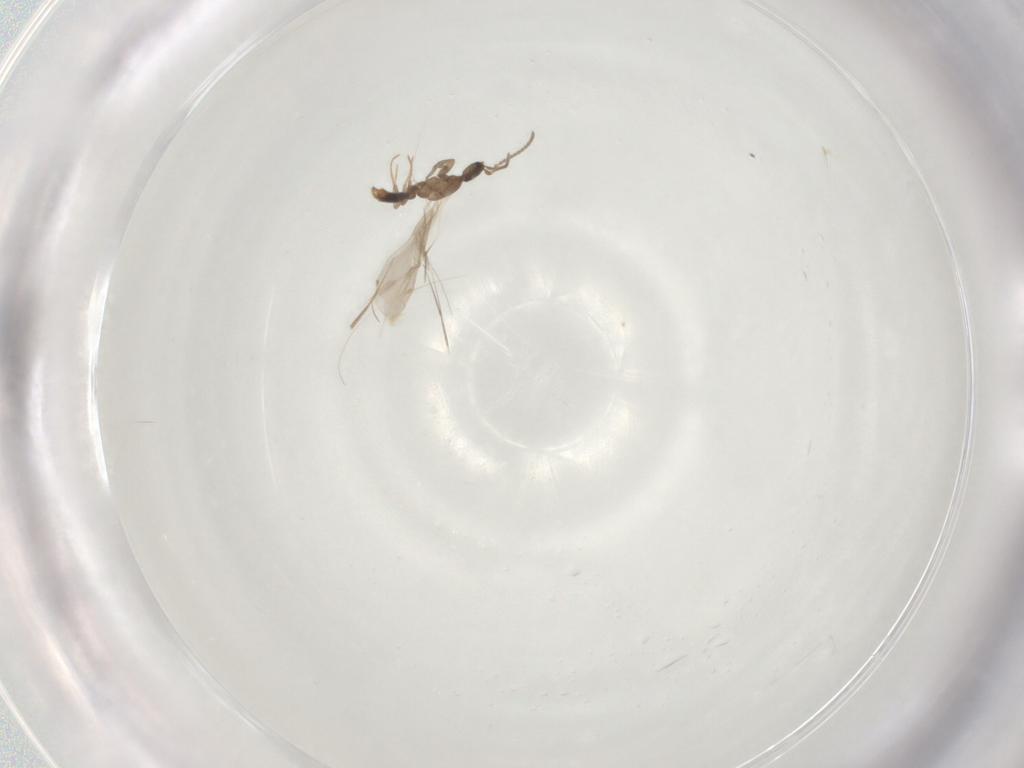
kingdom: Animalia
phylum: Arthropoda
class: Insecta
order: Hymenoptera
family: Formicidae
